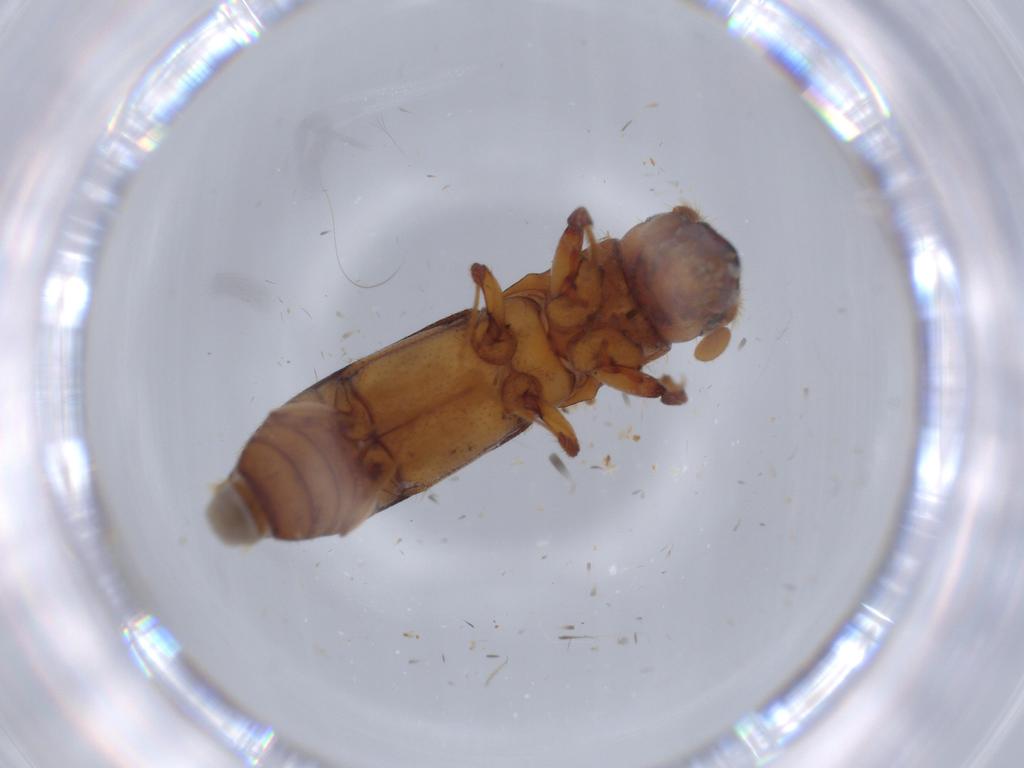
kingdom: Animalia
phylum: Arthropoda
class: Insecta
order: Coleoptera
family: Curculionidae
